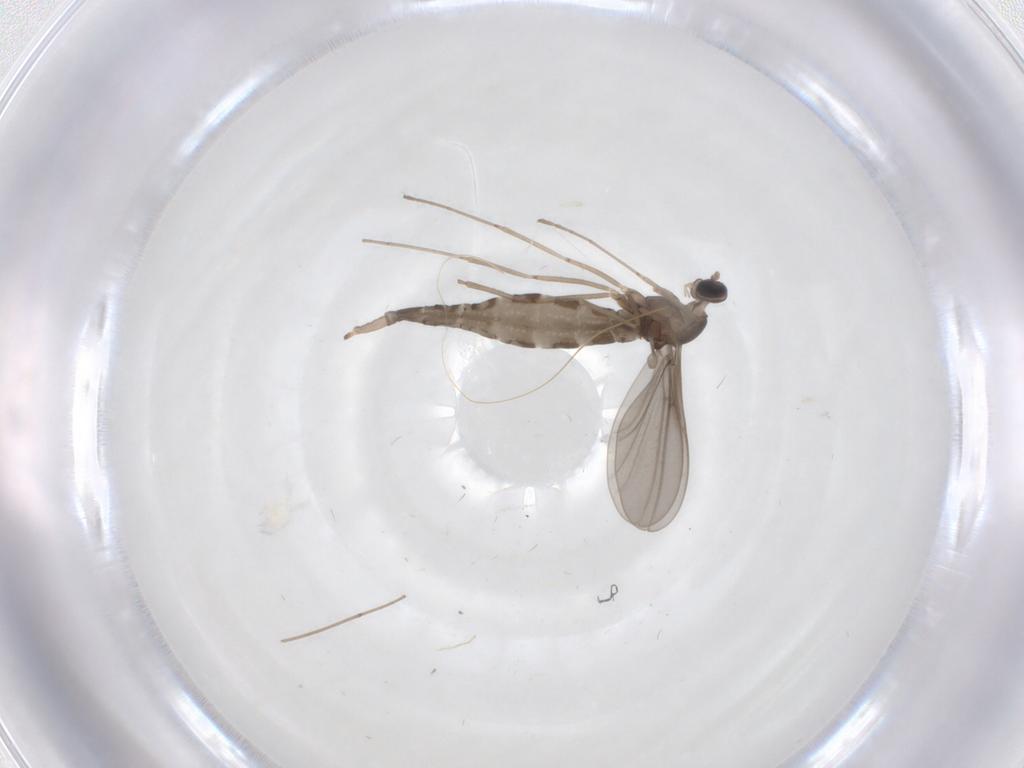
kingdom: Animalia
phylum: Arthropoda
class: Insecta
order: Diptera
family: Cecidomyiidae
